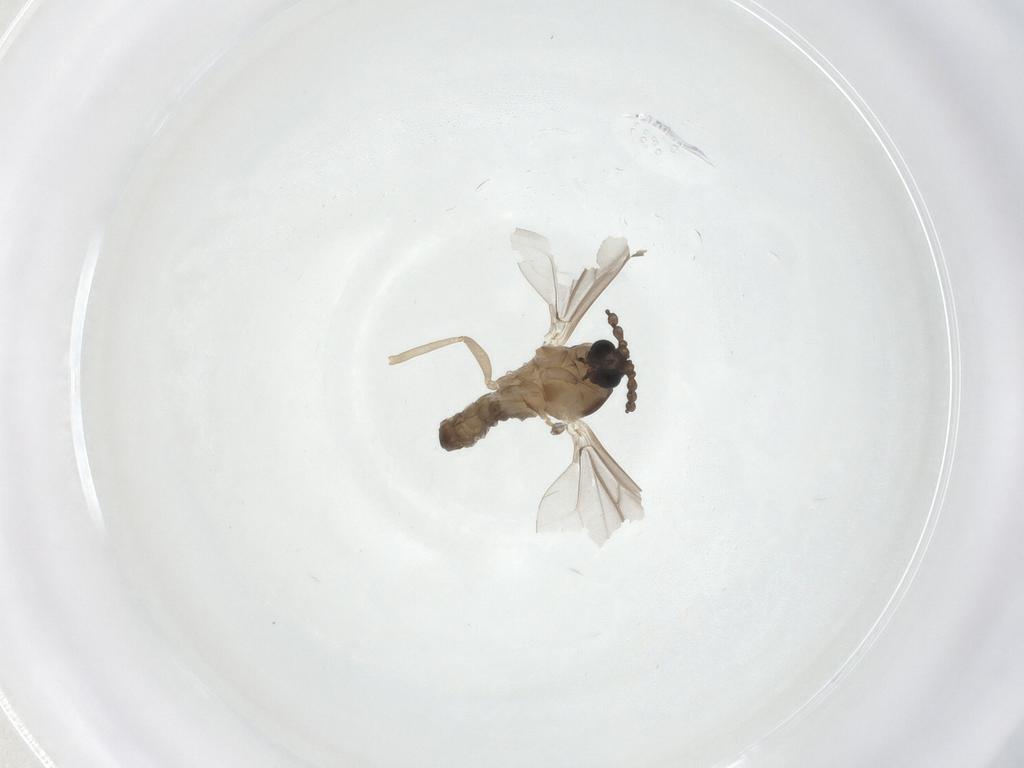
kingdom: Animalia
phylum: Arthropoda
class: Insecta
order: Diptera
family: Cecidomyiidae
